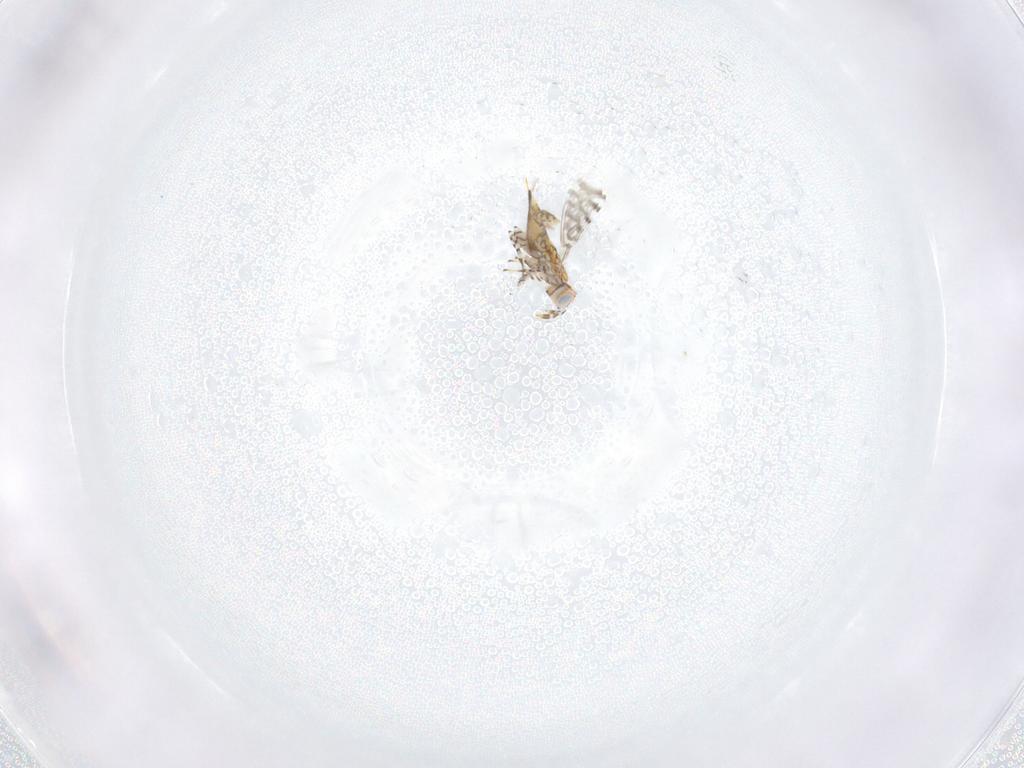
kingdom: Animalia
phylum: Arthropoda
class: Insecta
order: Hymenoptera
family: Aphelinidae
